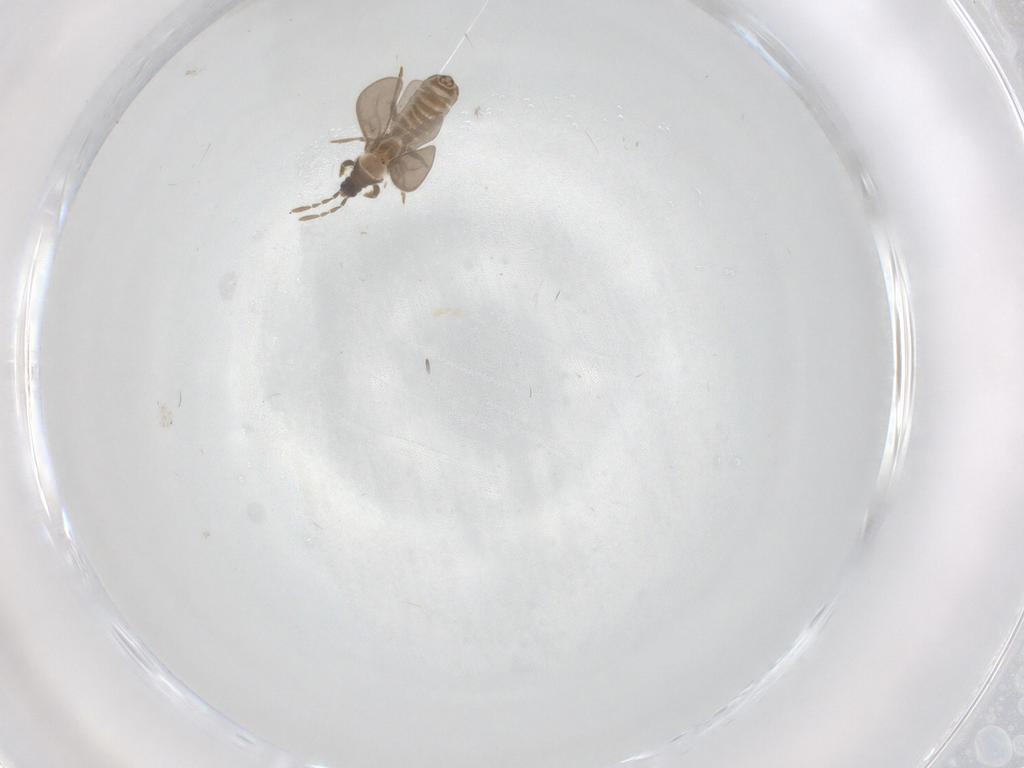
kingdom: Animalia
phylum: Arthropoda
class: Insecta
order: Hemiptera
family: Enicocephalidae
